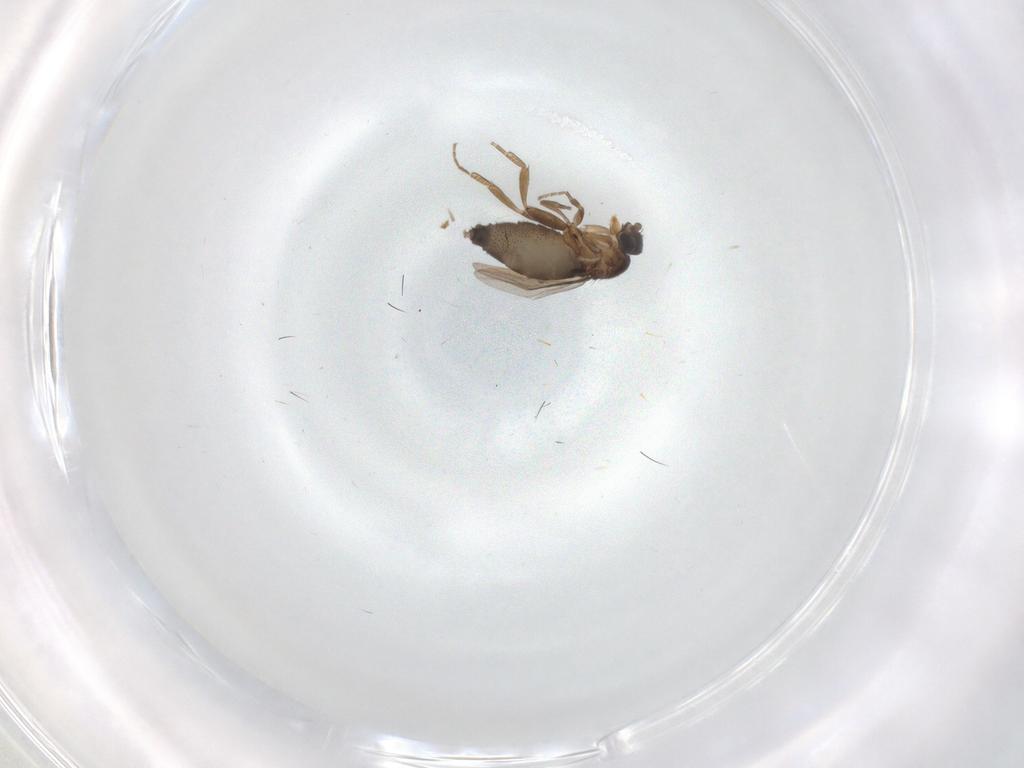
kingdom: Animalia
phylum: Arthropoda
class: Insecta
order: Diptera
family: Phoridae
